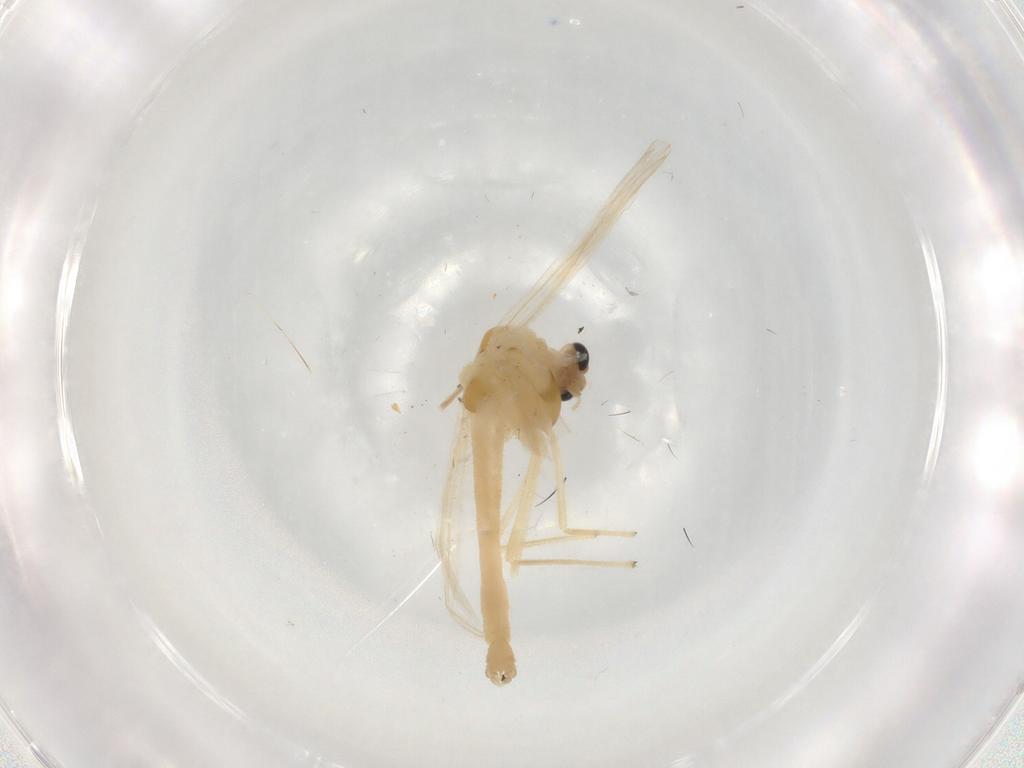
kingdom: Animalia
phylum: Arthropoda
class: Insecta
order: Diptera
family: Chironomidae
